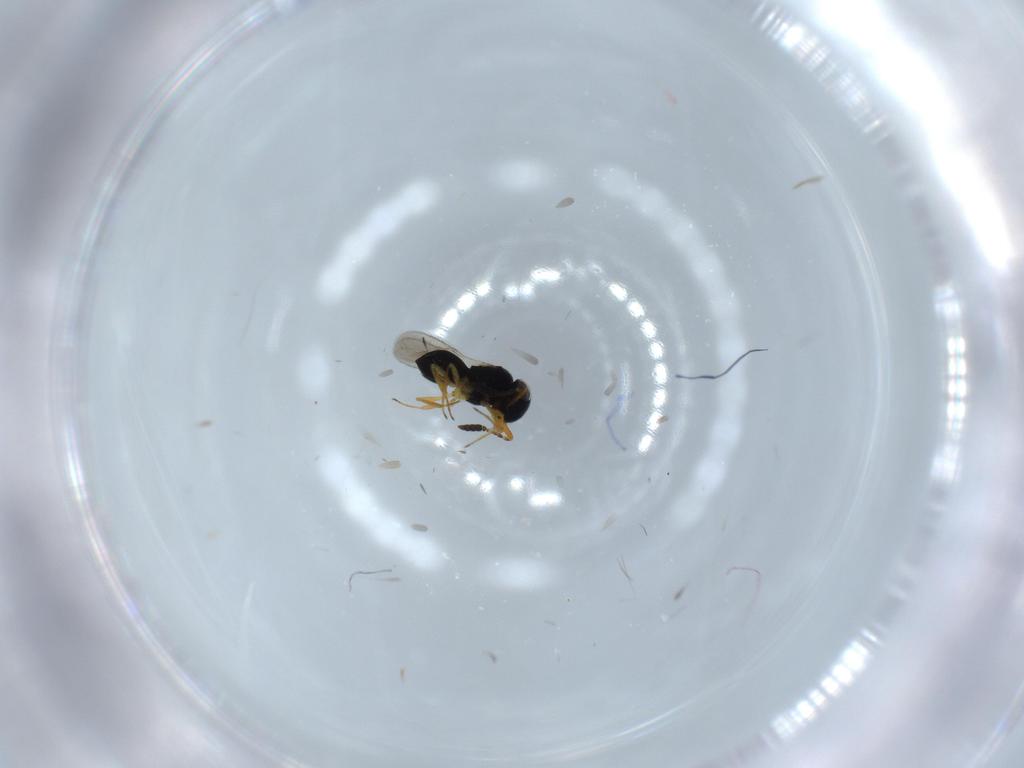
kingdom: Animalia
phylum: Arthropoda
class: Insecta
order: Hymenoptera
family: Scelionidae
